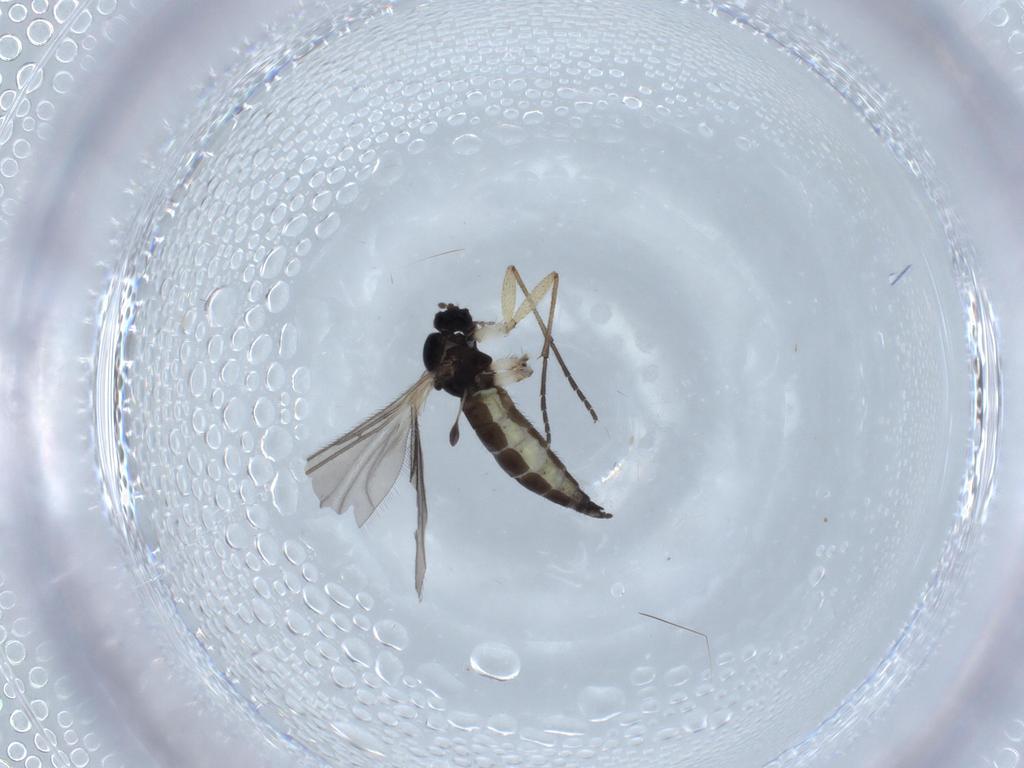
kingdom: Animalia
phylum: Arthropoda
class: Insecta
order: Diptera
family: Sciaridae
